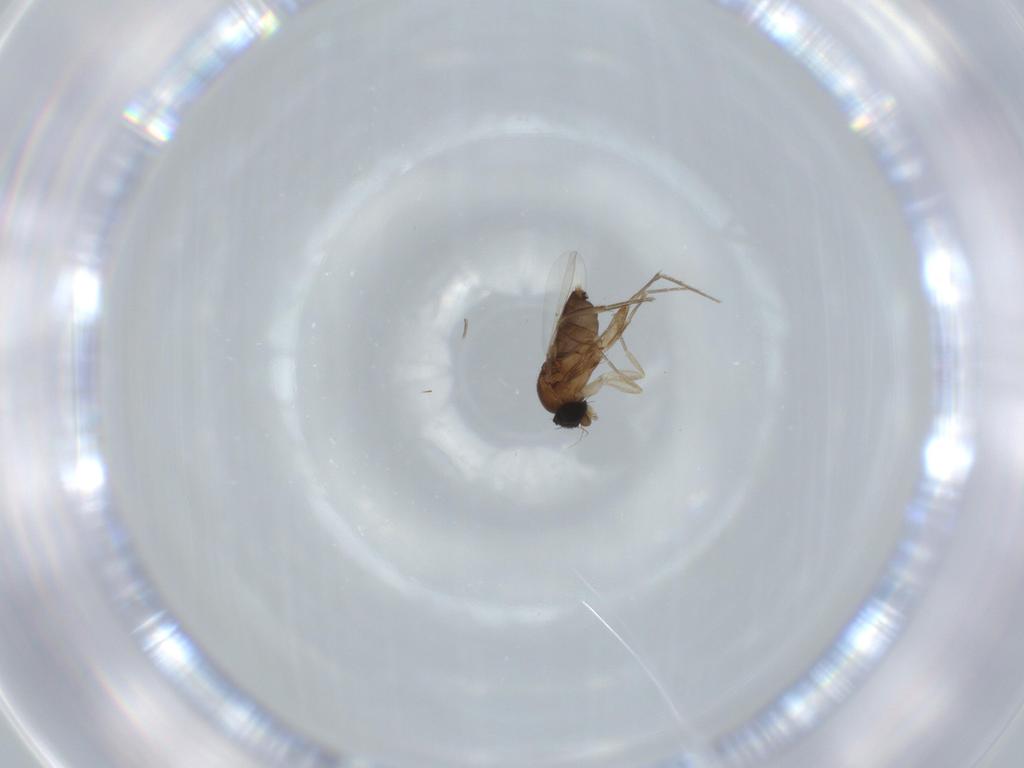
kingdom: Animalia
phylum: Arthropoda
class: Insecta
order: Diptera
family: Phoridae
